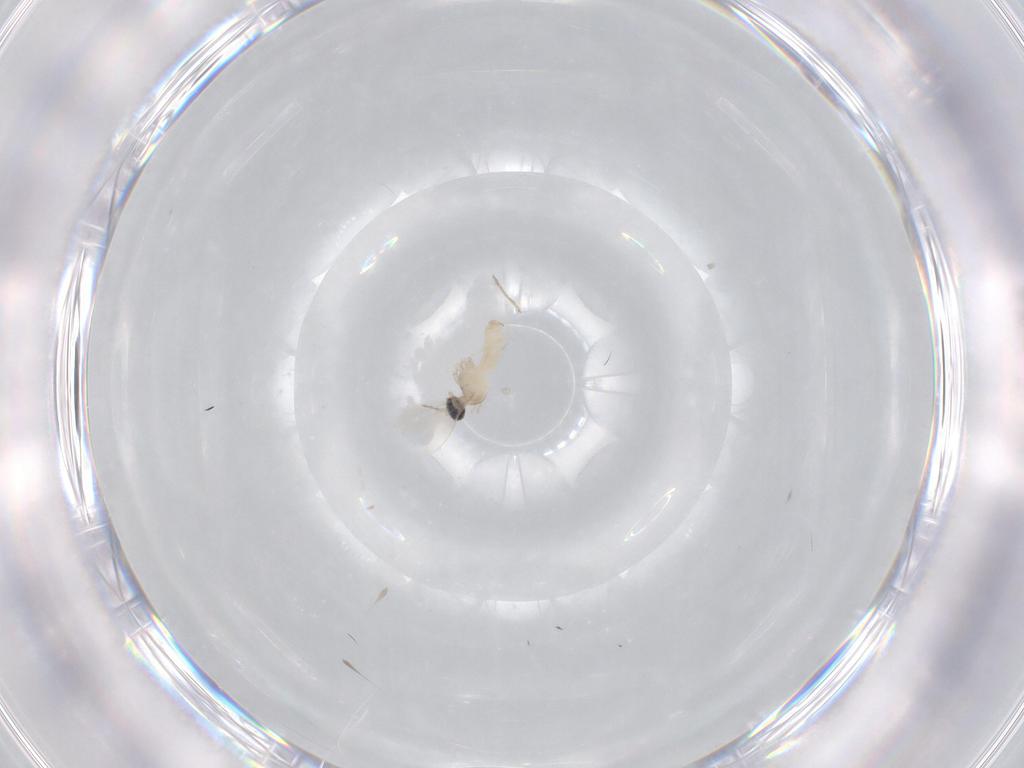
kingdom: Animalia
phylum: Arthropoda
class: Insecta
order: Diptera
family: Cecidomyiidae
